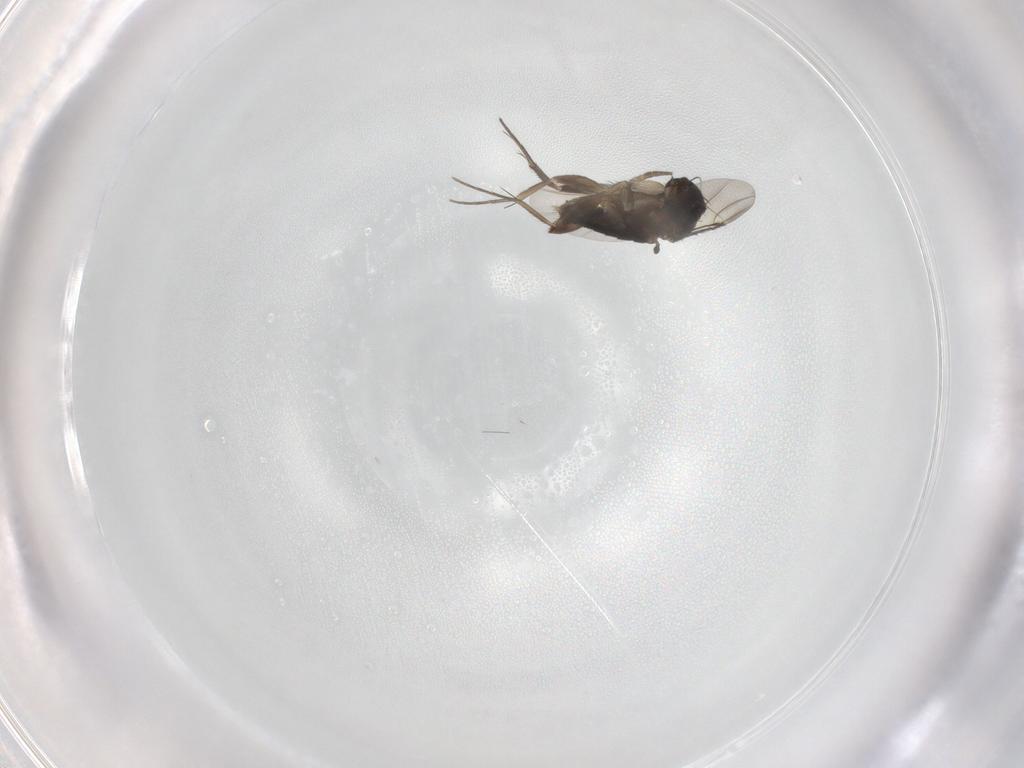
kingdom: Animalia
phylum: Arthropoda
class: Insecta
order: Diptera
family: Phoridae
